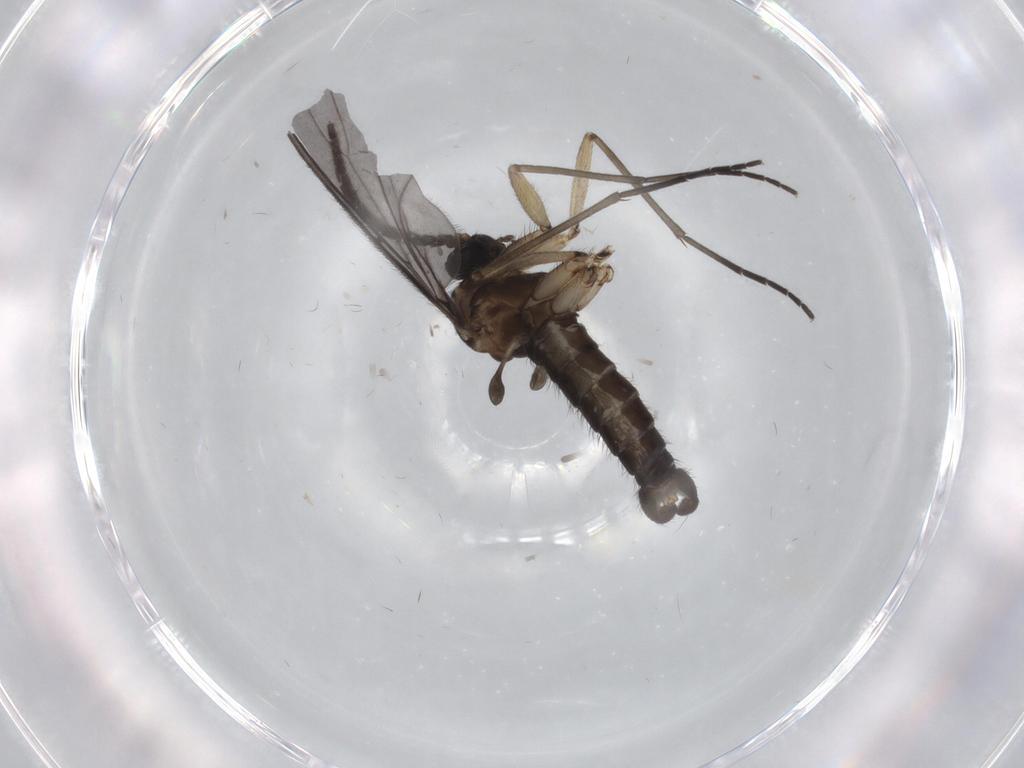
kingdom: Animalia
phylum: Arthropoda
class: Insecta
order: Diptera
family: Sciaridae
